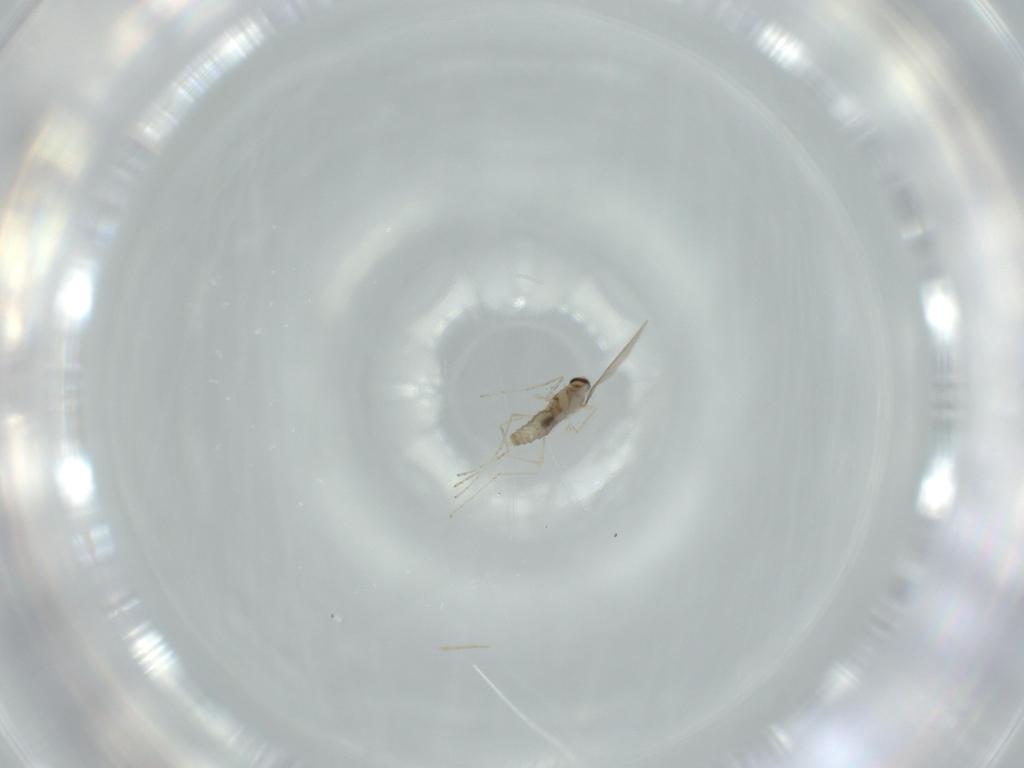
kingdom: Animalia
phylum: Arthropoda
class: Insecta
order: Diptera
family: Cecidomyiidae
